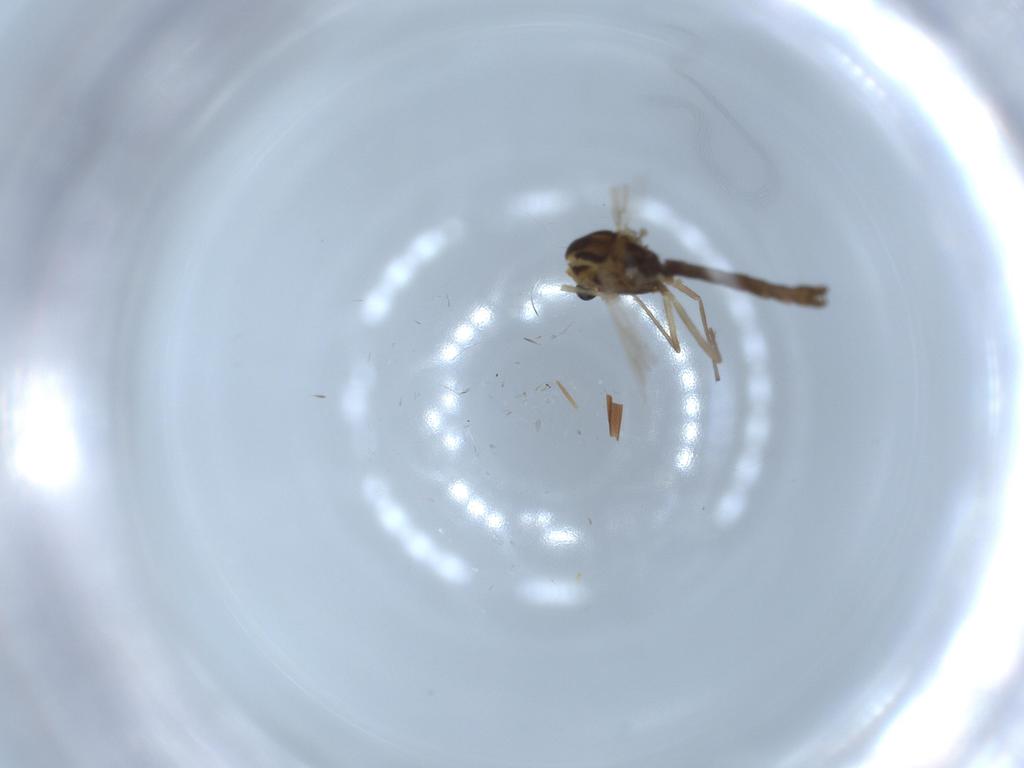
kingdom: Animalia
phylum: Arthropoda
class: Insecta
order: Diptera
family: Chironomidae
